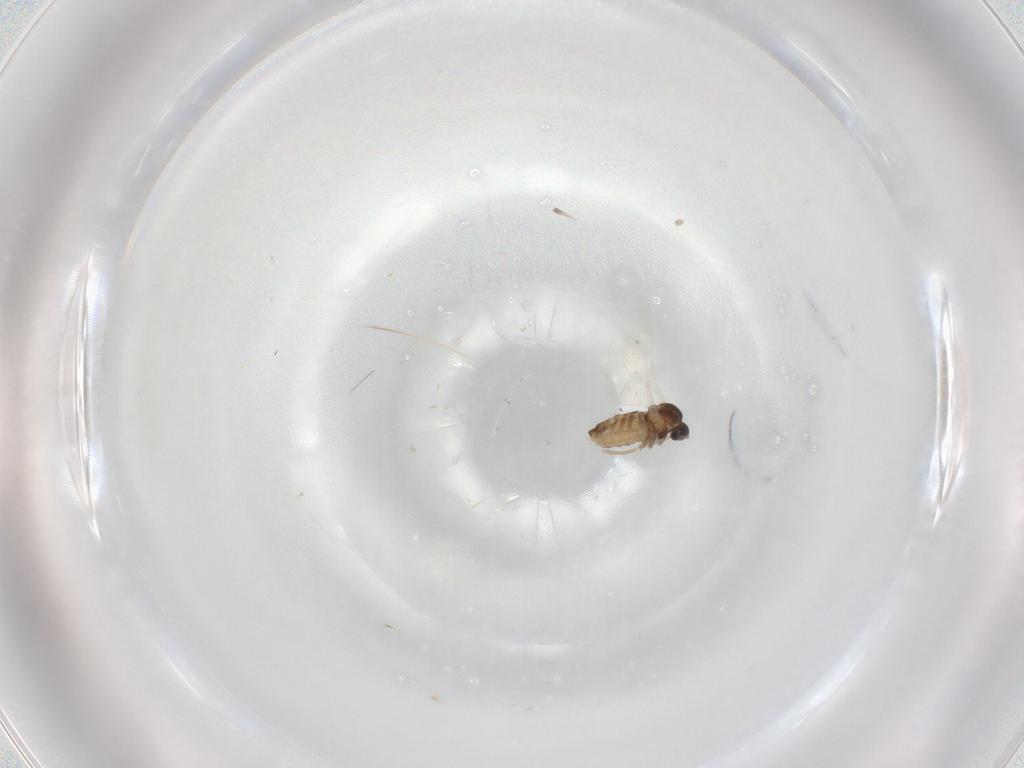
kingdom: Animalia
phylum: Arthropoda
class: Insecta
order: Diptera
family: Cecidomyiidae
